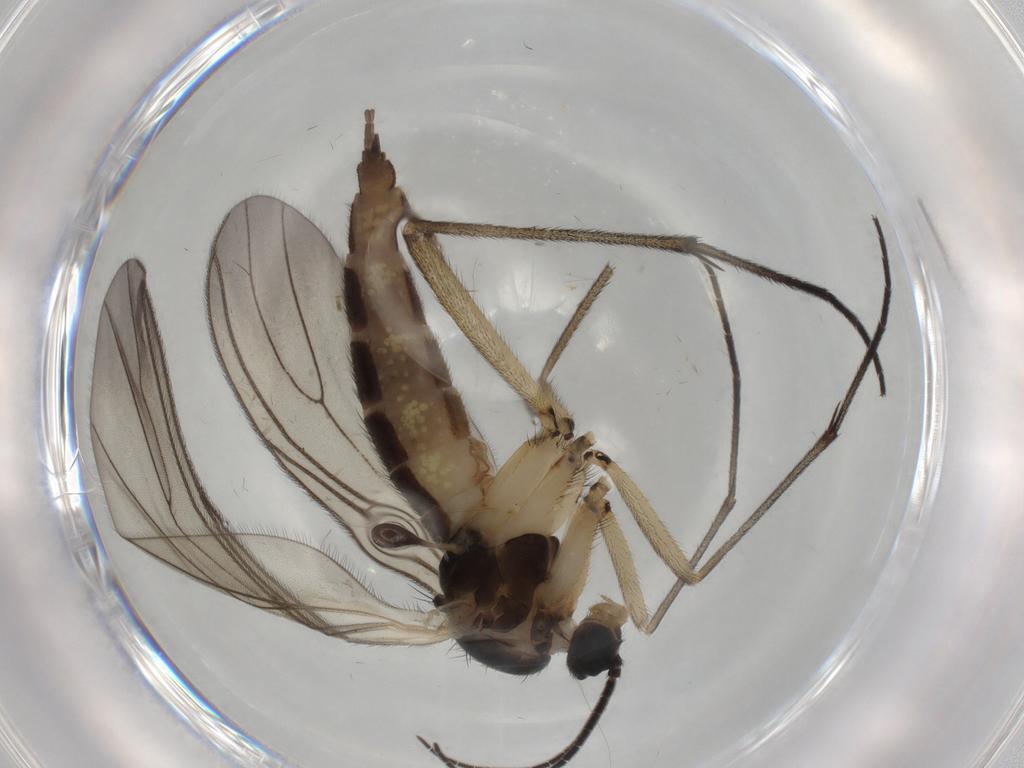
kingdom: Animalia
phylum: Arthropoda
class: Insecta
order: Diptera
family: Sciaridae
